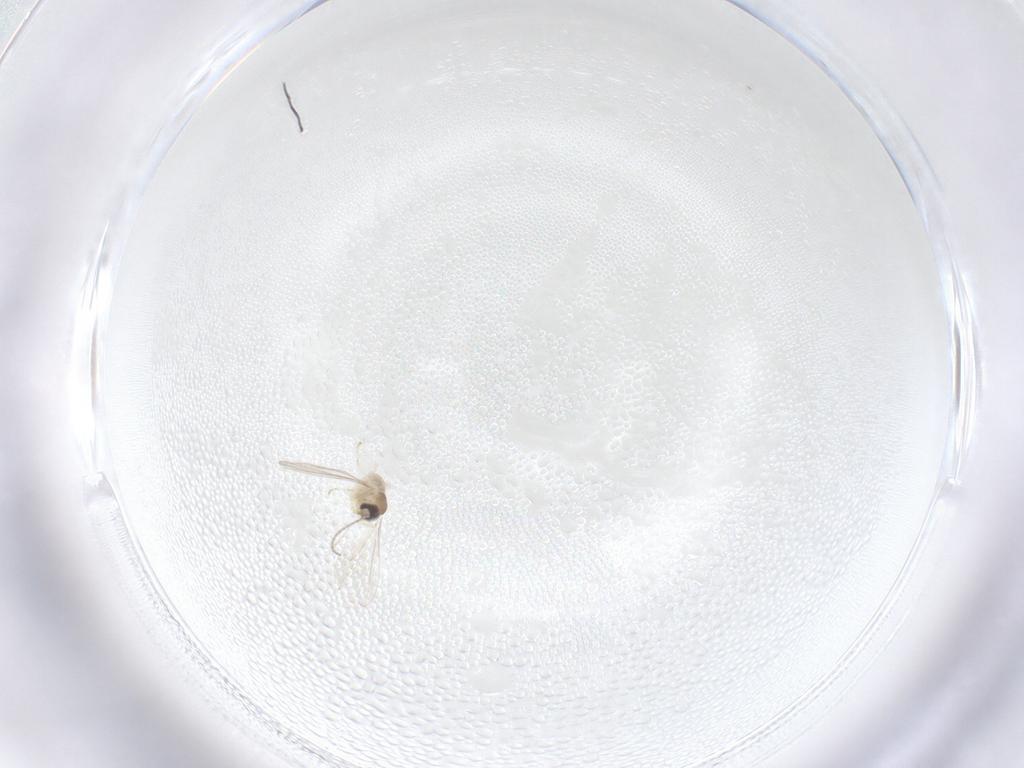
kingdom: Animalia
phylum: Arthropoda
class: Insecta
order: Diptera
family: Cecidomyiidae
